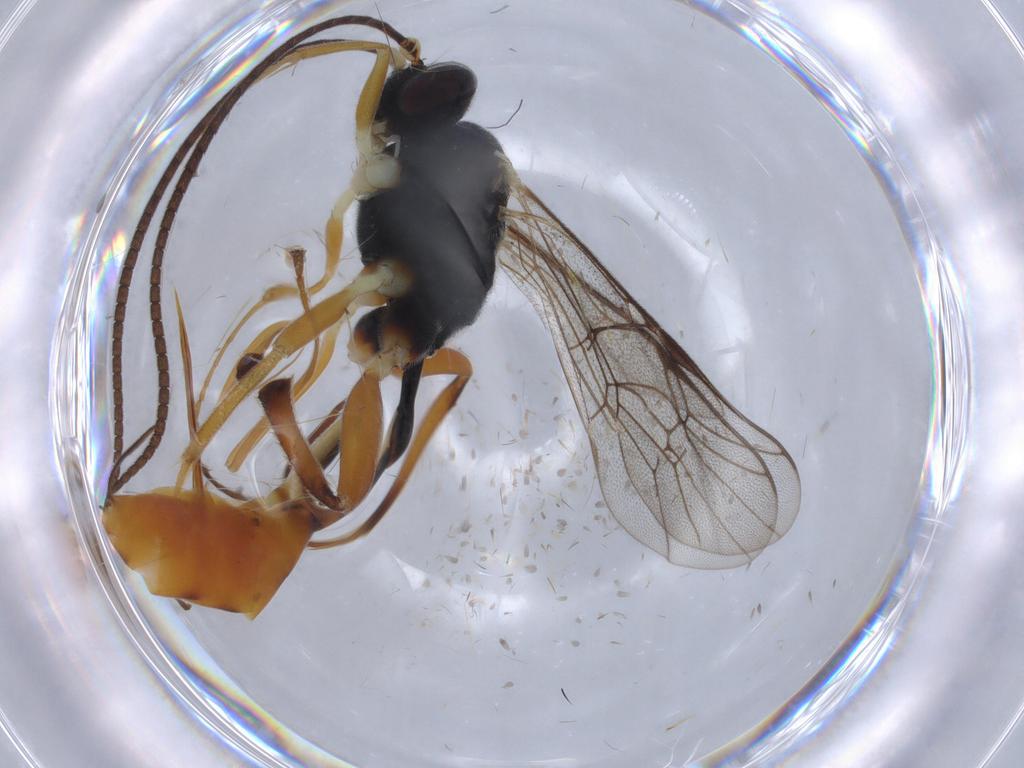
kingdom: Animalia
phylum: Arthropoda
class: Insecta
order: Hymenoptera
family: Ichneumonidae
